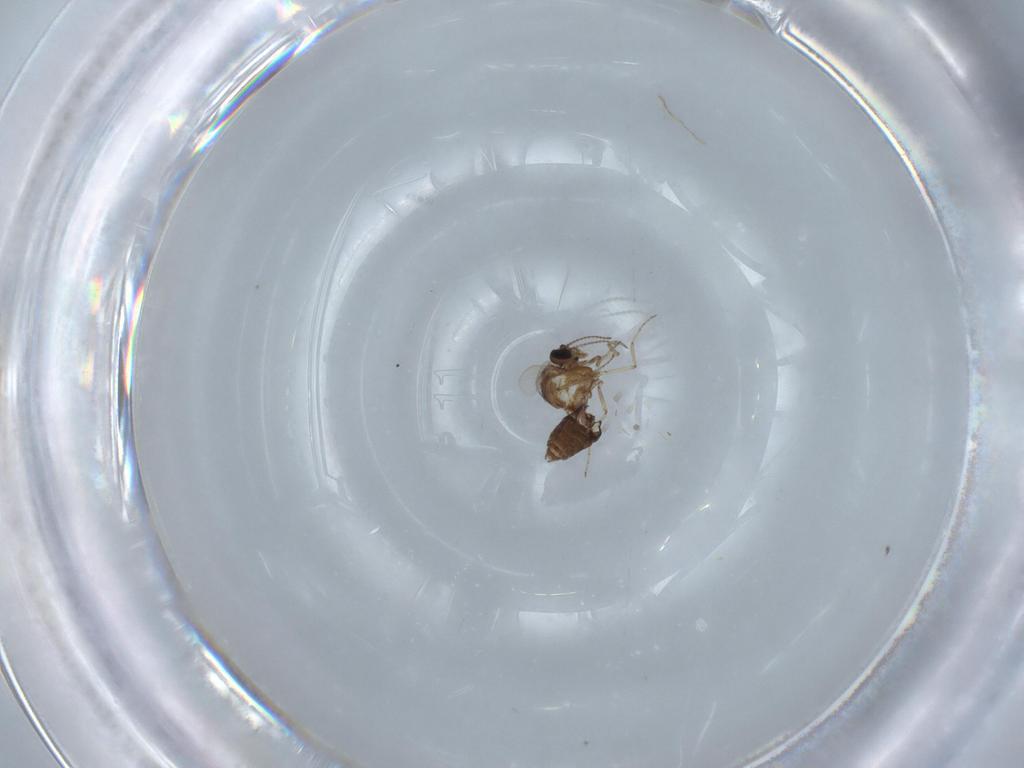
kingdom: Animalia
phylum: Arthropoda
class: Insecta
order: Diptera
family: Ceratopogonidae
